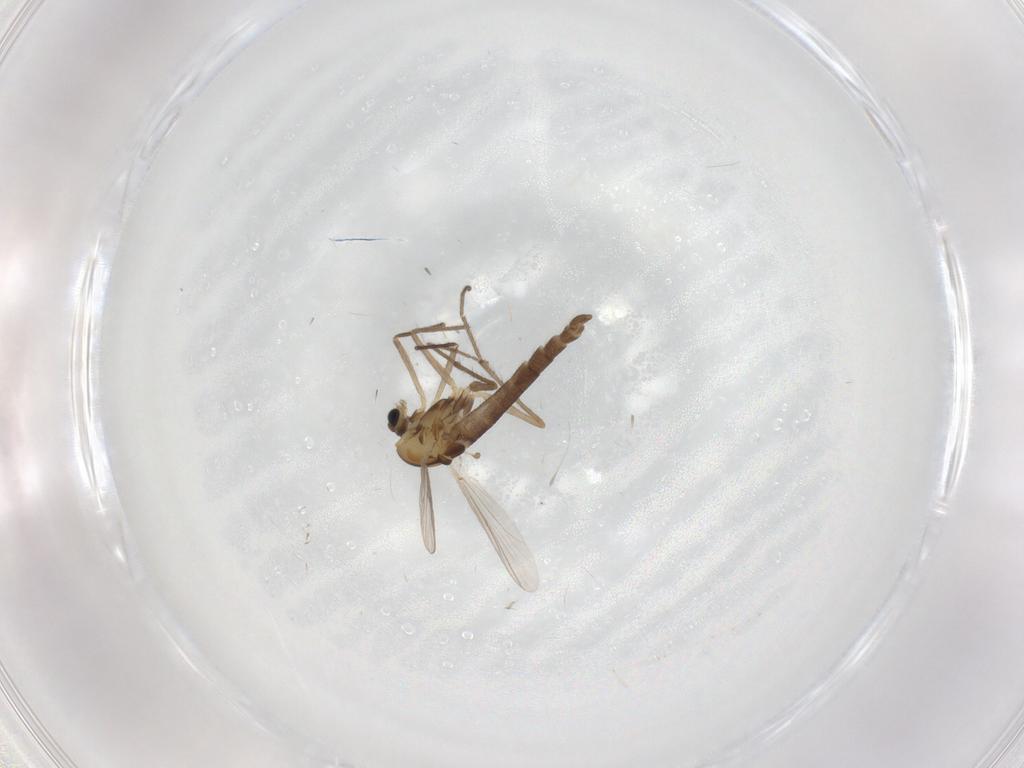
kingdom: Animalia
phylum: Arthropoda
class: Insecta
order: Diptera
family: Chironomidae
